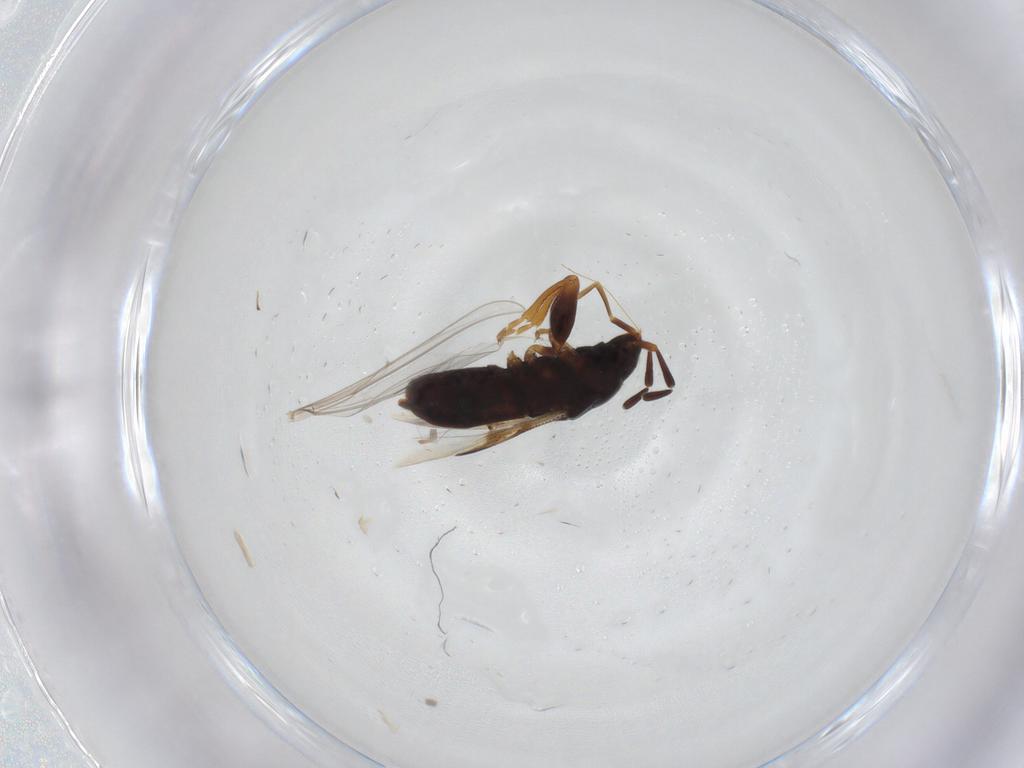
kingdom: Animalia
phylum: Arthropoda
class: Insecta
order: Hemiptera
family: Rhyparochromidae
